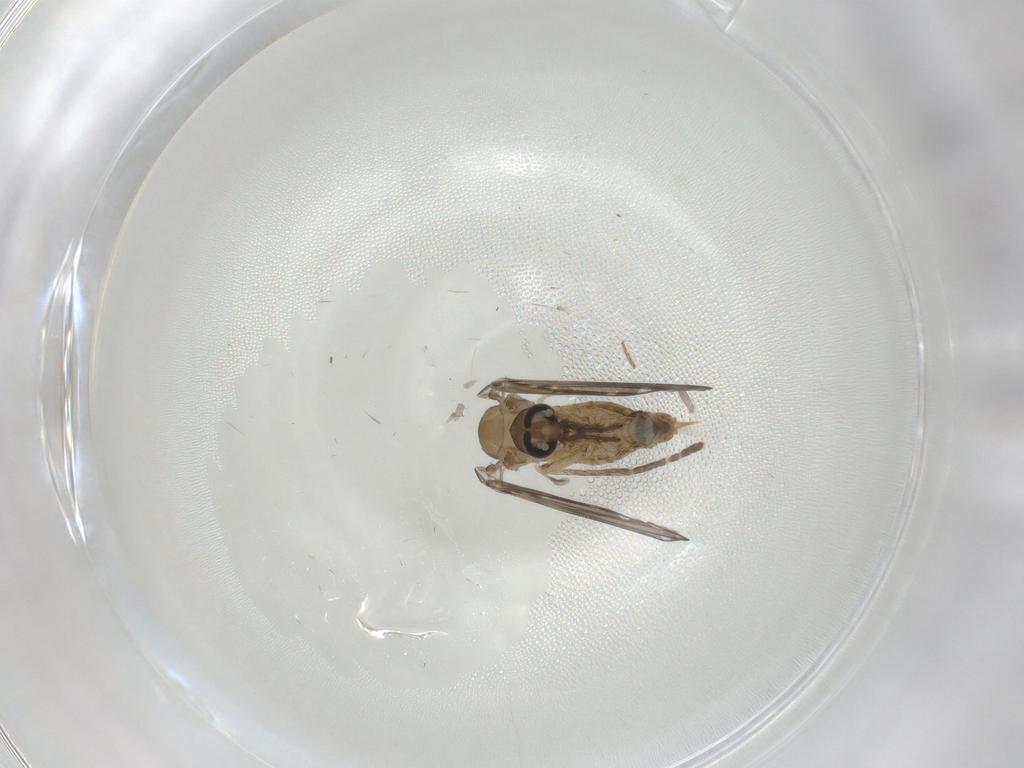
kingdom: Animalia
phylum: Arthropoda
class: Insecta
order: Diptera
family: Psychodidae
